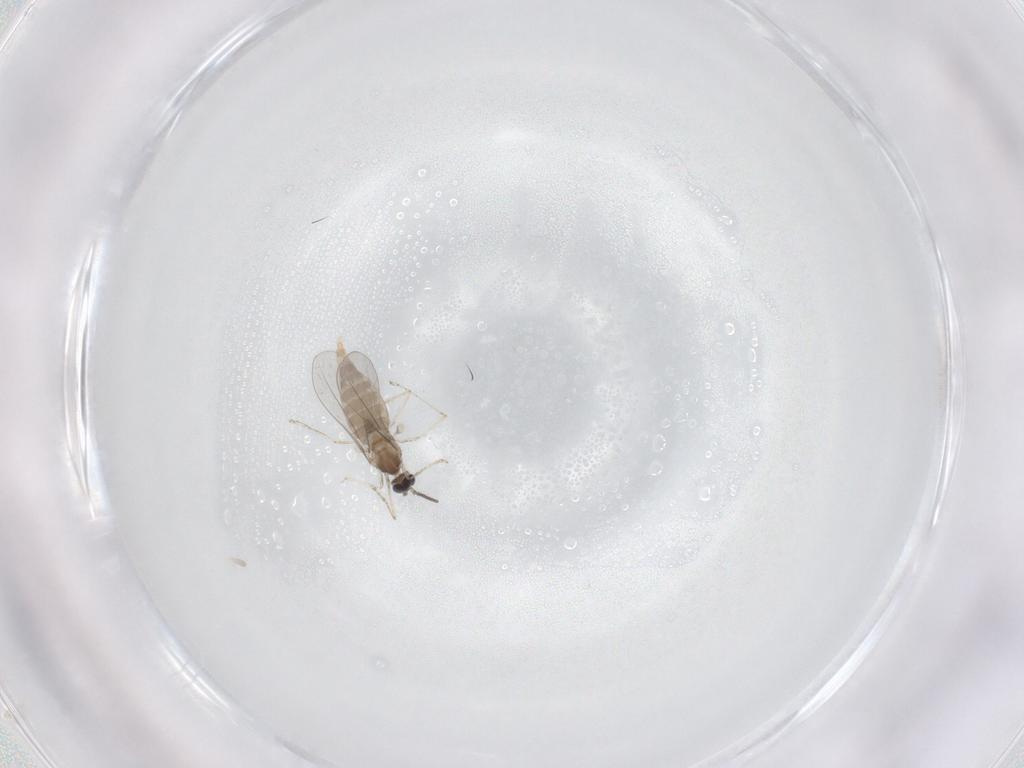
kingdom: Animalia
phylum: Arthropoda
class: Insecta
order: Diptera
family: Cecidomyiidae
